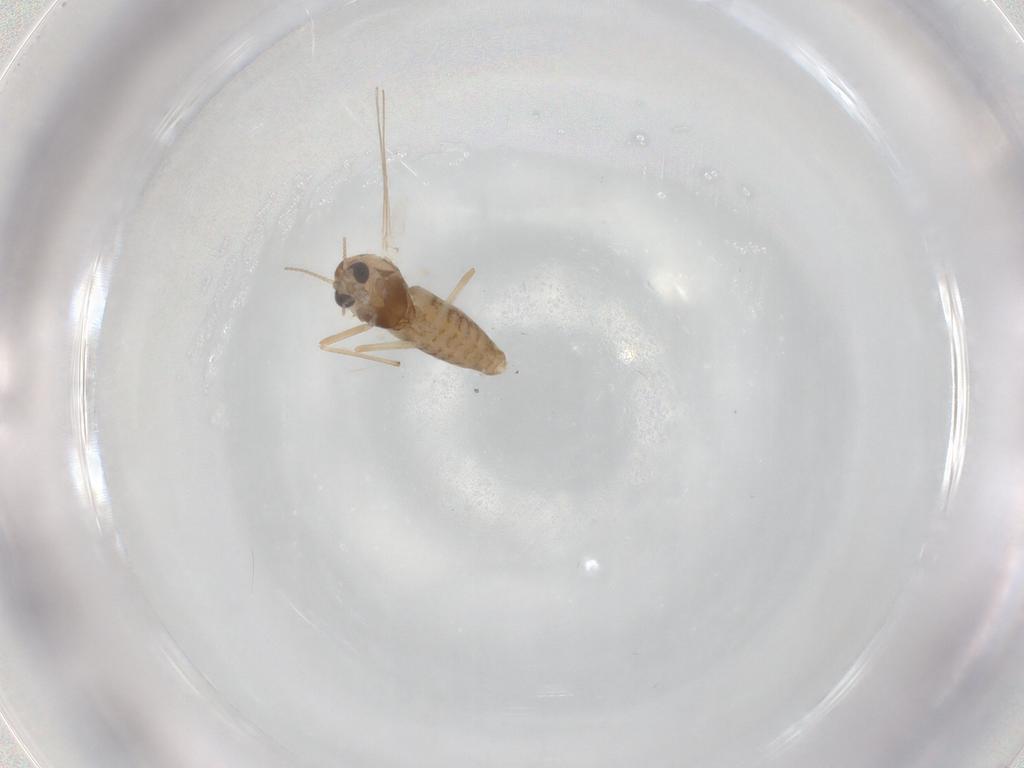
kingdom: Animalia
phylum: Arthropoda
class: Insecta
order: Diptera
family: Chironomidae
